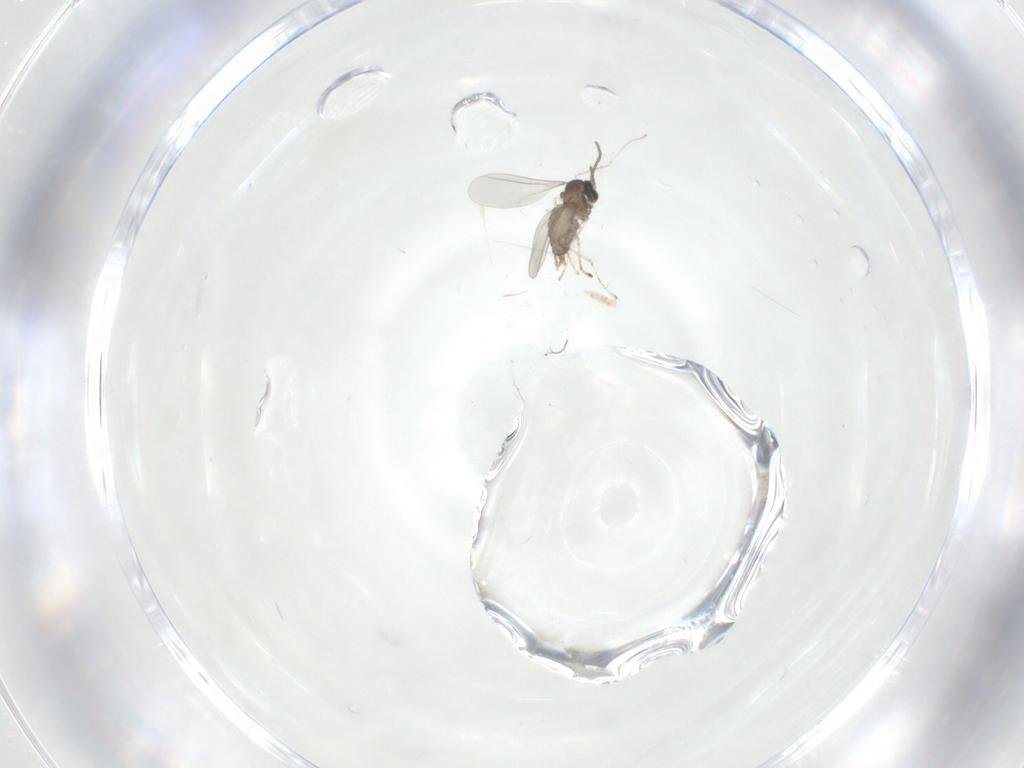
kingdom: Animalia
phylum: Arthropoda
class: Insecta
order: Diptera
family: Cecidomyiidae
